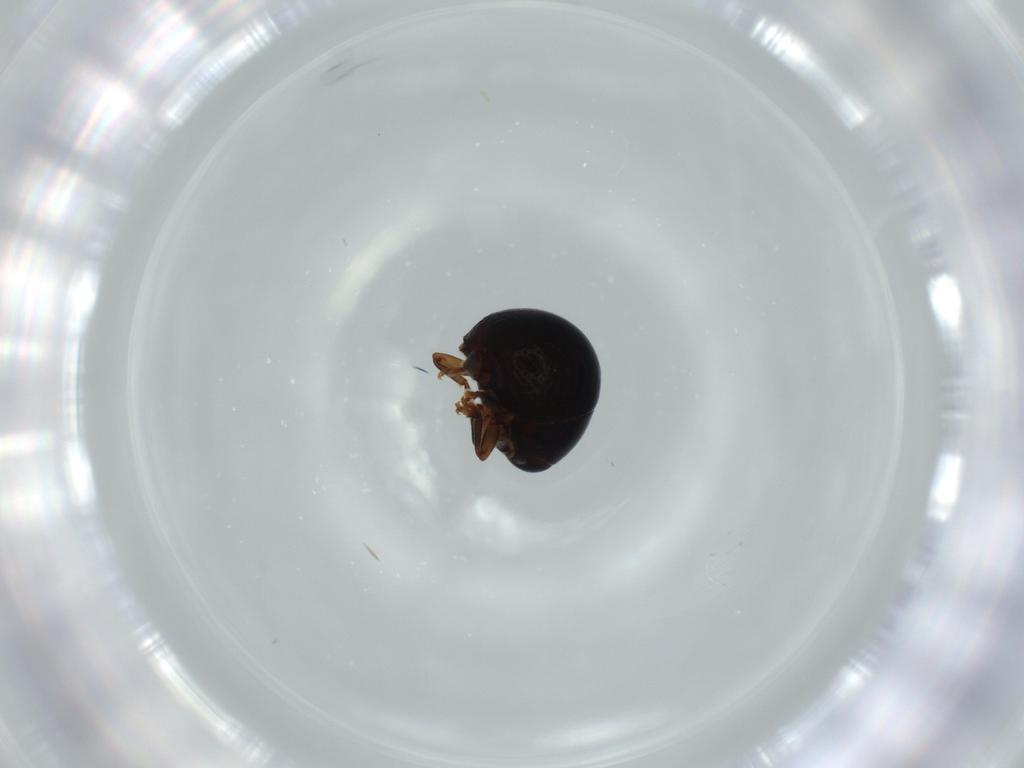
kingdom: Animalia
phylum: Arthropoda
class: Insecta
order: Coleoptera
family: Anthribidae
